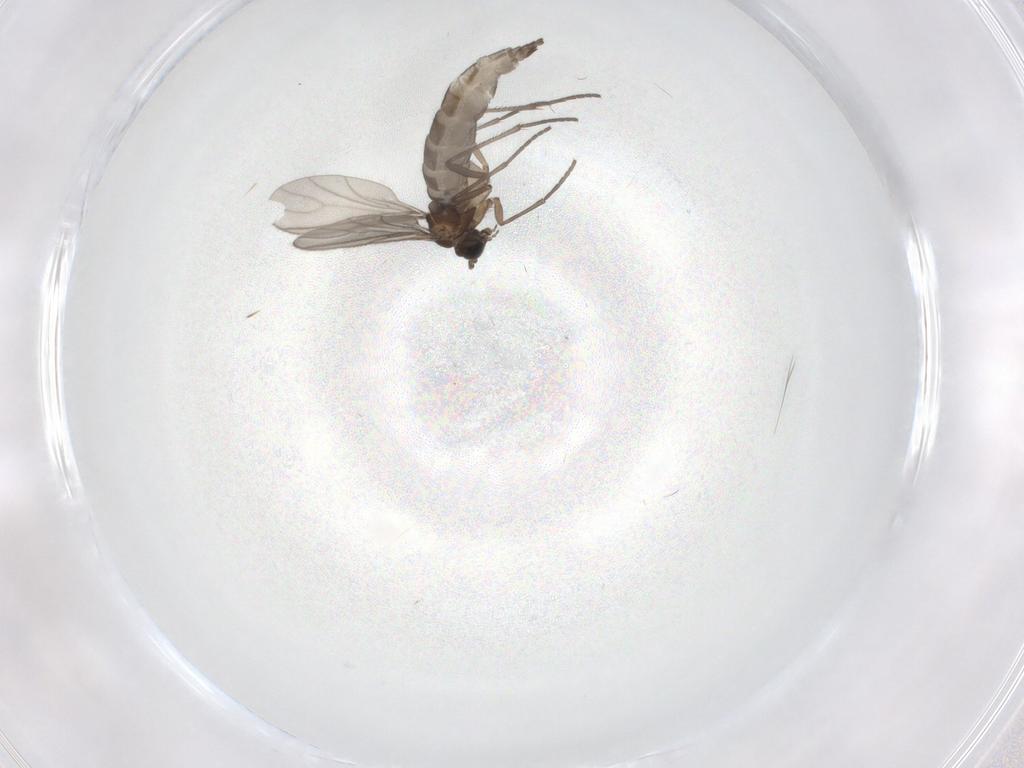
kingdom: Animalia
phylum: Arthropoda
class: Insecta
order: Diptera
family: Sciaridae
